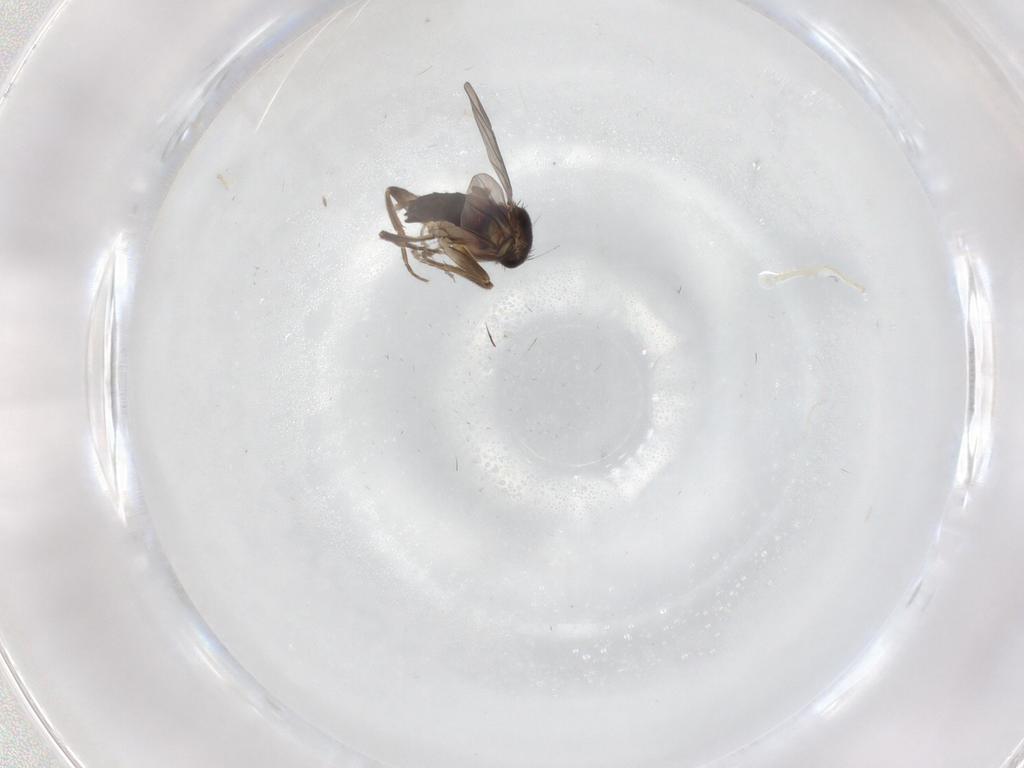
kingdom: Animalia
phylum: Arthropoda
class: Insecta
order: Diptera
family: Cecidomyiidae
